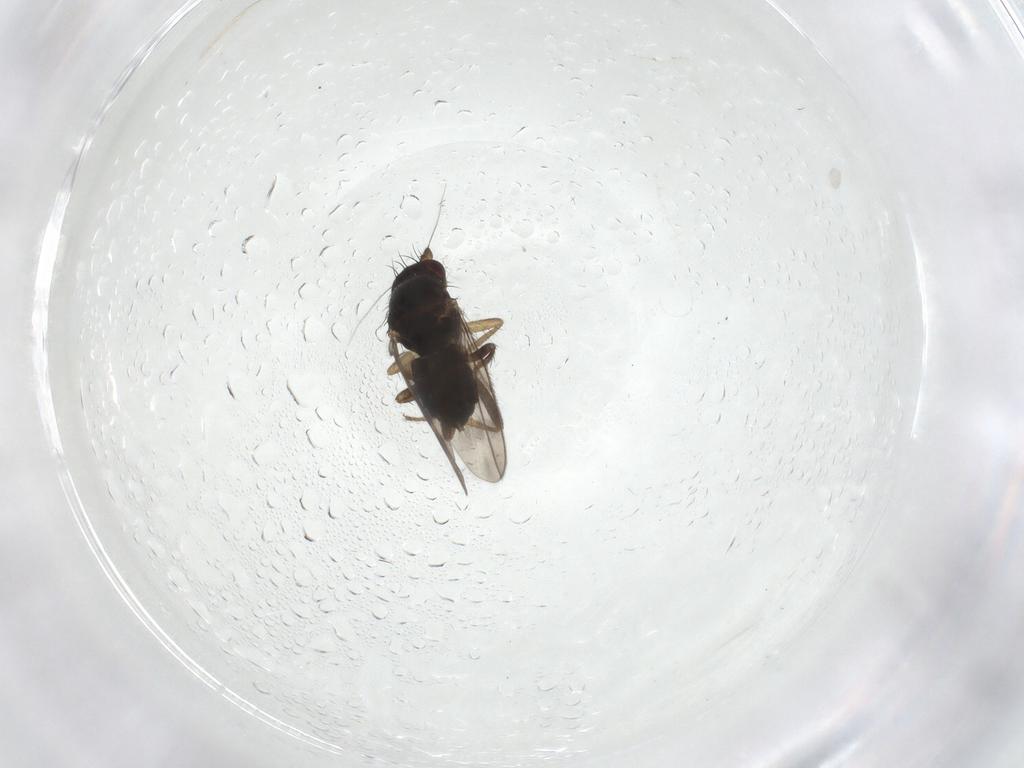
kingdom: Animalia
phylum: Arthropoda
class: Insecta
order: Diptera
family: Sphaeroceridae
